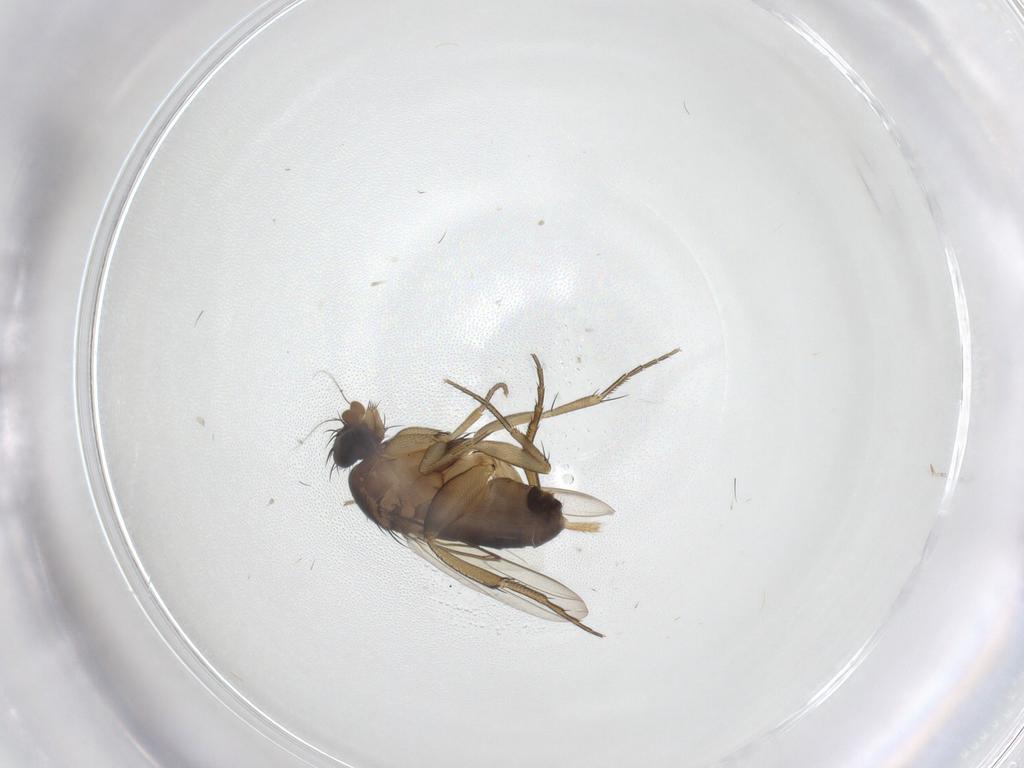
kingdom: Animalia
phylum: Arthropoda
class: Insecta
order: Diptera
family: Phoridae
